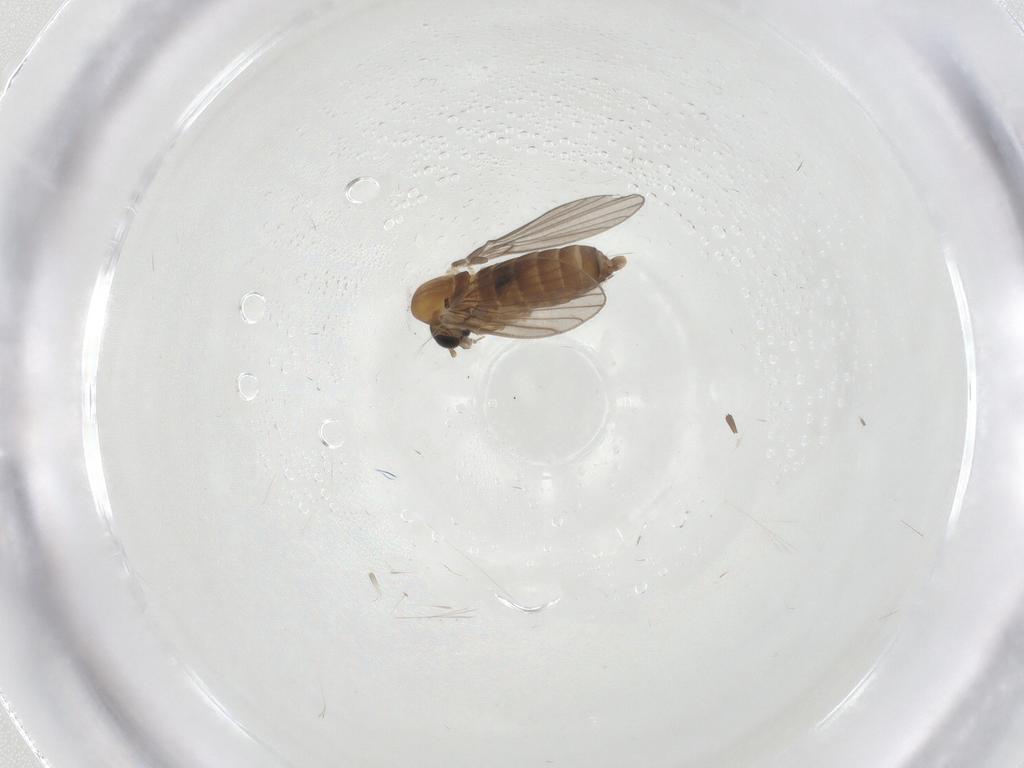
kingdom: Animalia
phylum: Arthropoda
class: Insecta
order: Diptera
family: Cecidomyiidae
